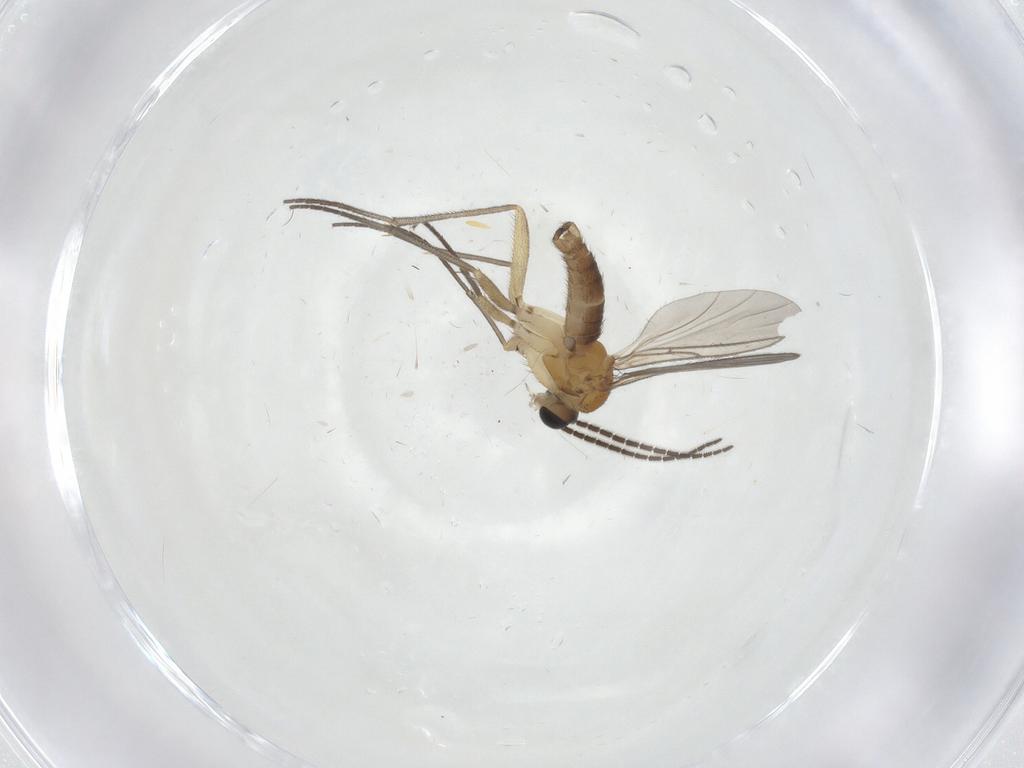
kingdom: Animalia
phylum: Arthropoda
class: Insecta
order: Diptera
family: Sciaridae
